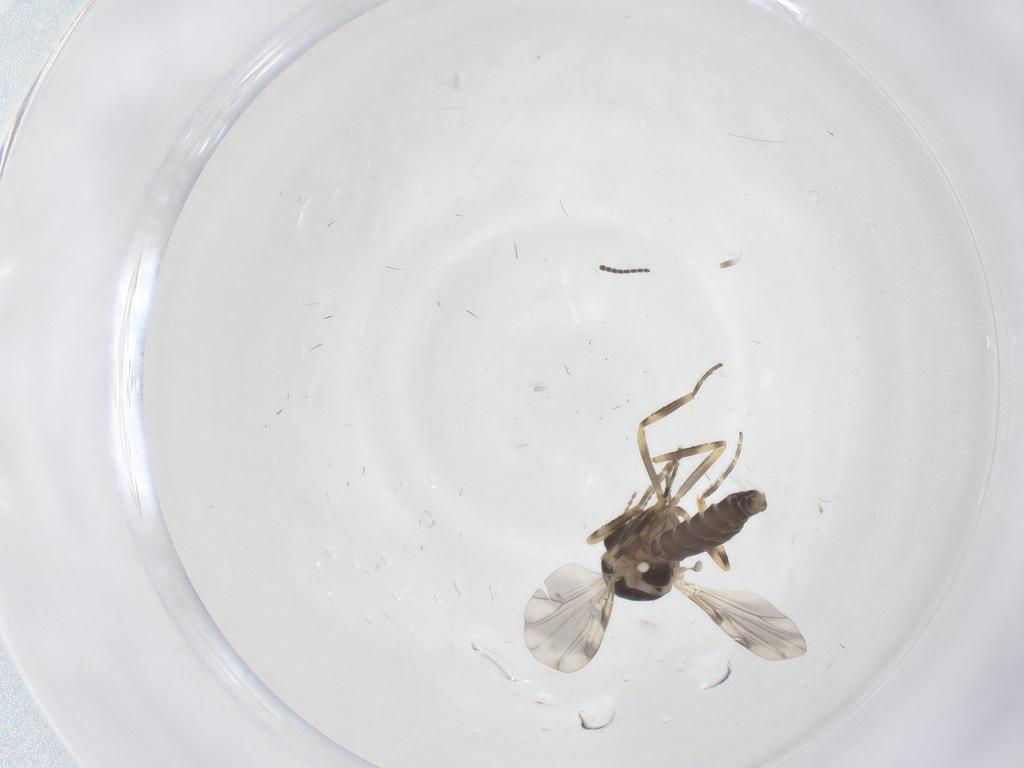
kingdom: Animalia
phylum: Arthropoda
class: Insecta
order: Diptera
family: Ceratopogonidae
